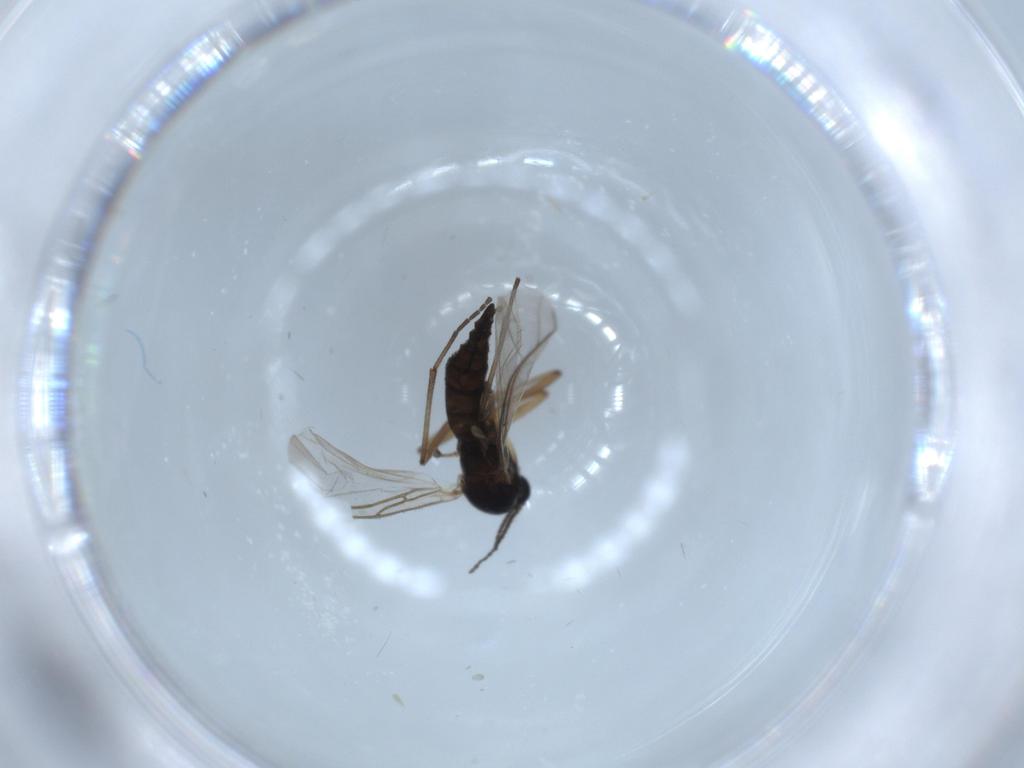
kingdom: Animalia
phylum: Arthropoda
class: Insecta
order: Diptera
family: Sciaridae
